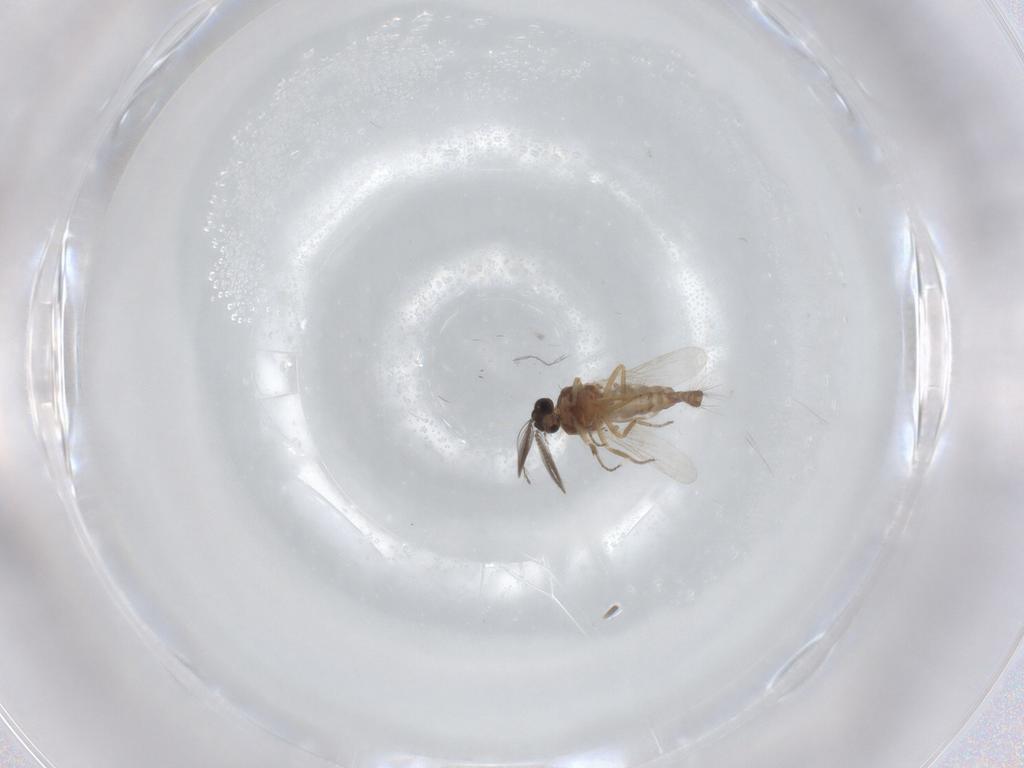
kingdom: Animalia
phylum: Arthropoda
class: Insecta
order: Diptera
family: Ceratopogonidae
